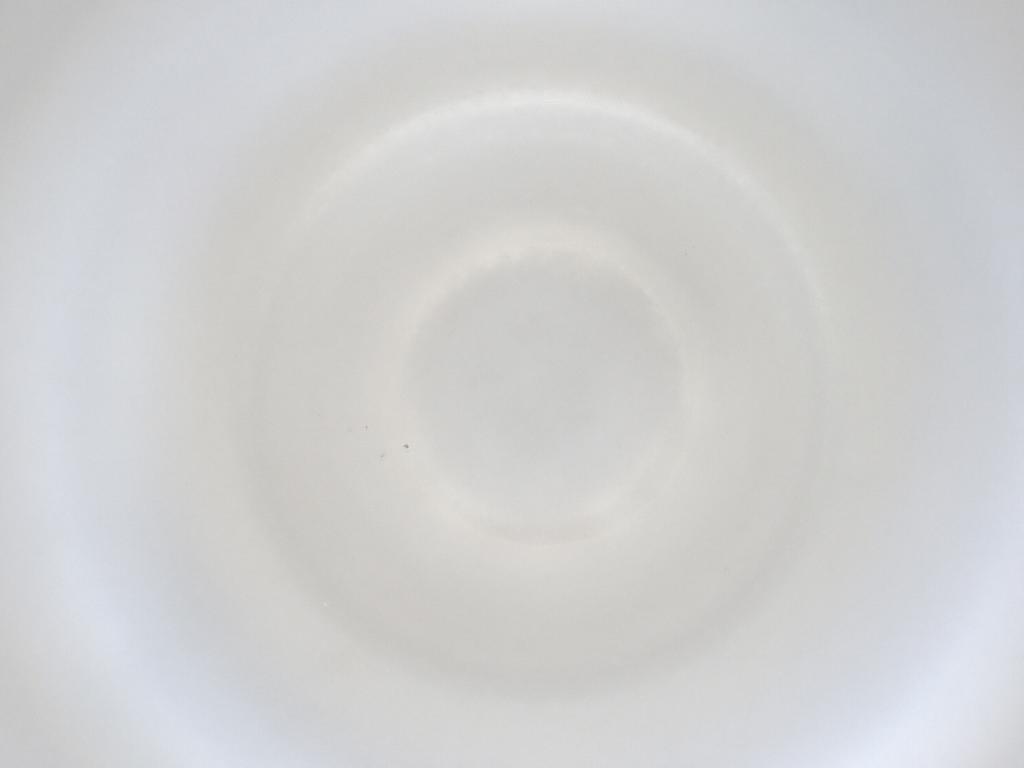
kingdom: Animalia
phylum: Arthropoda
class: Insecta
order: Diptera
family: Cecidomyiidae
